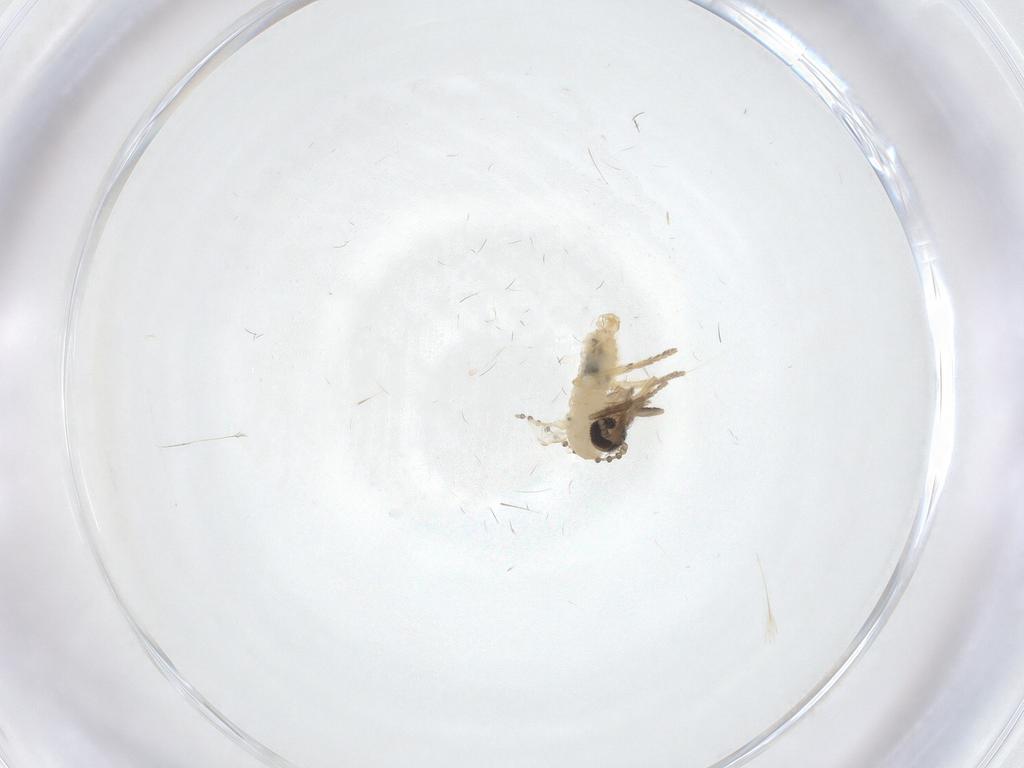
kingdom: Animalia
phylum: Arthropoda
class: Insecta
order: Diptera
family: Psychodidae
